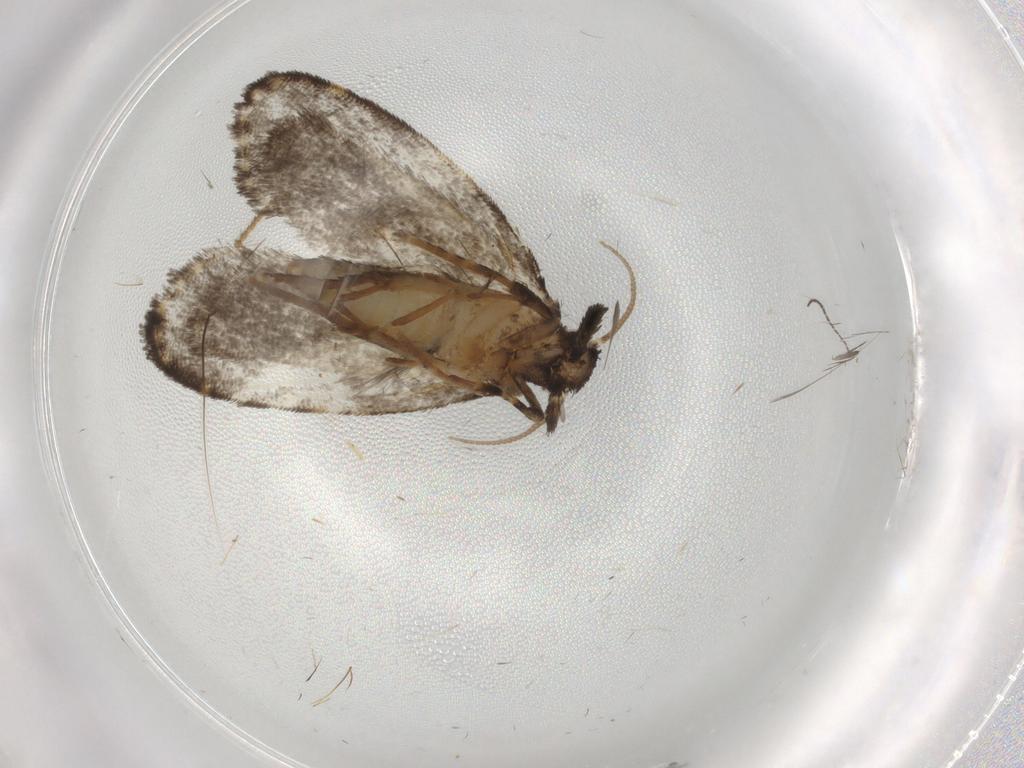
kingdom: Animalia
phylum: Arthropoda
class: Insecta
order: Lepidoptera
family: Psychidae
